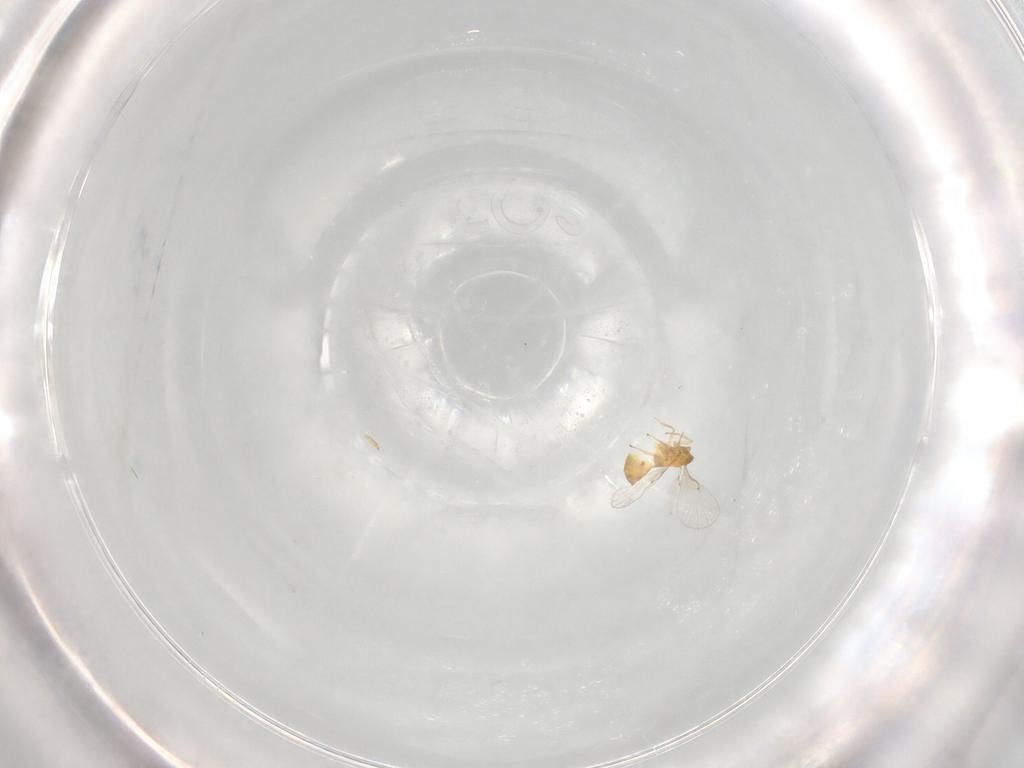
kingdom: Animalia
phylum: Arthropoda
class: Insecta
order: Hymenoptera
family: Trichogrammatidae
